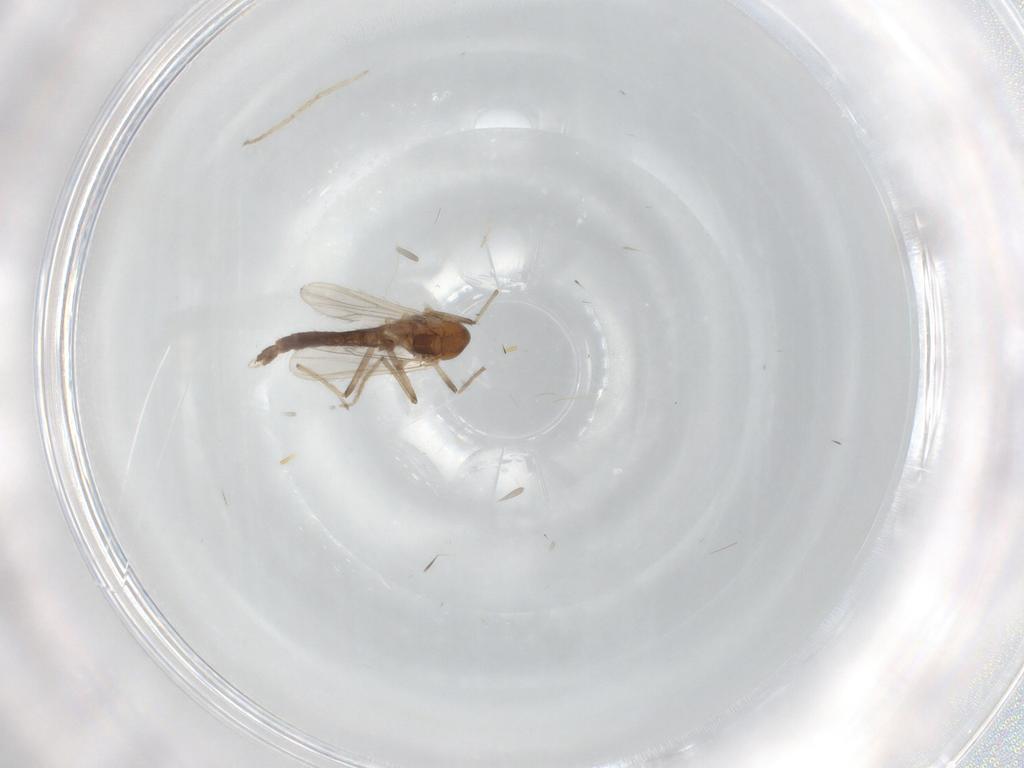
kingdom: Animalia
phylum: Arthropoda
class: Insecta
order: Diptera
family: Chironomidae
